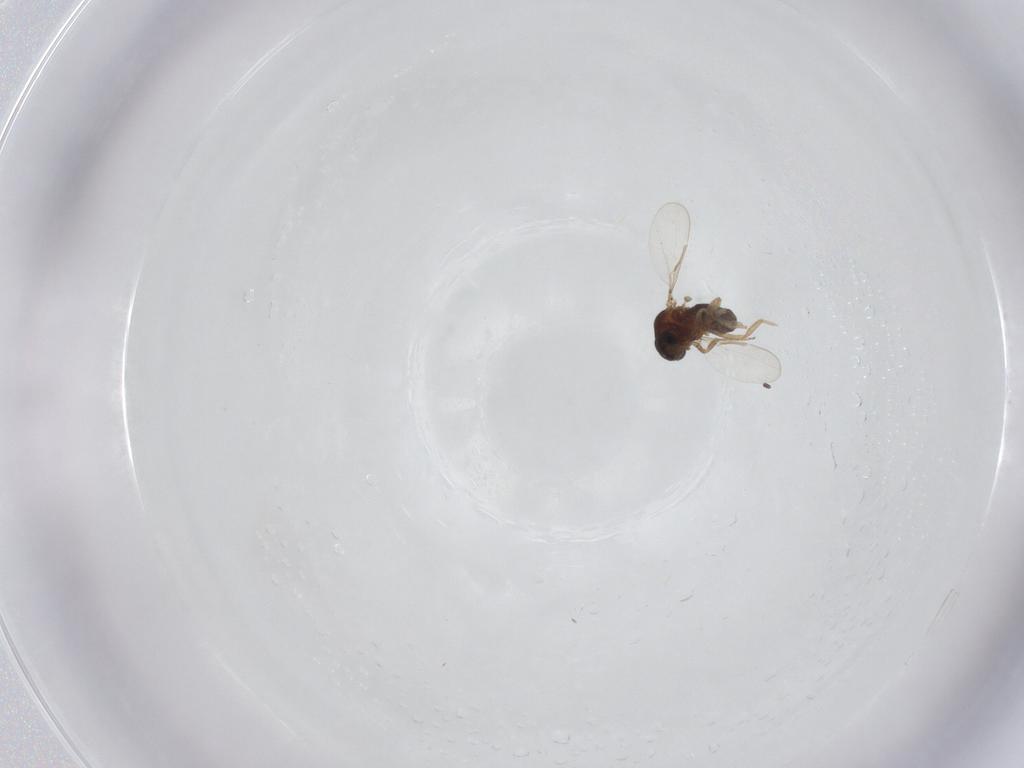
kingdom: Animalia
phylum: Arthropoda
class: Insecta
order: Diptera
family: Ceratopogonidae
